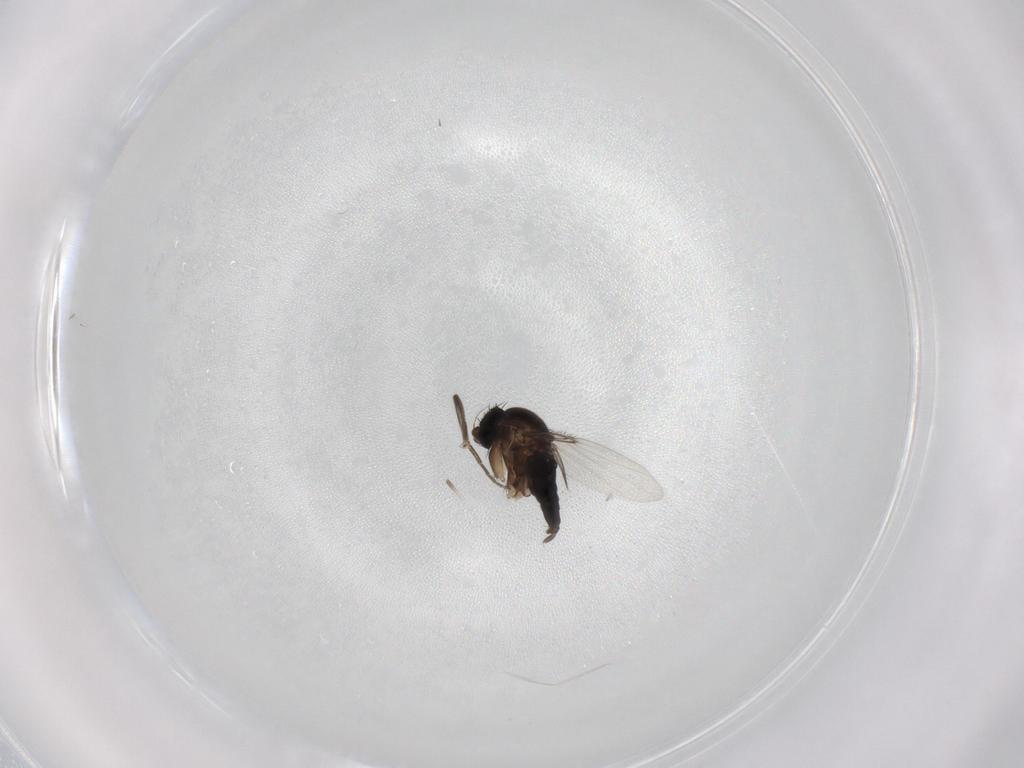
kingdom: Animalia
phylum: Arthropoda
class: Insecta
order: Diptera
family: Phoridae
